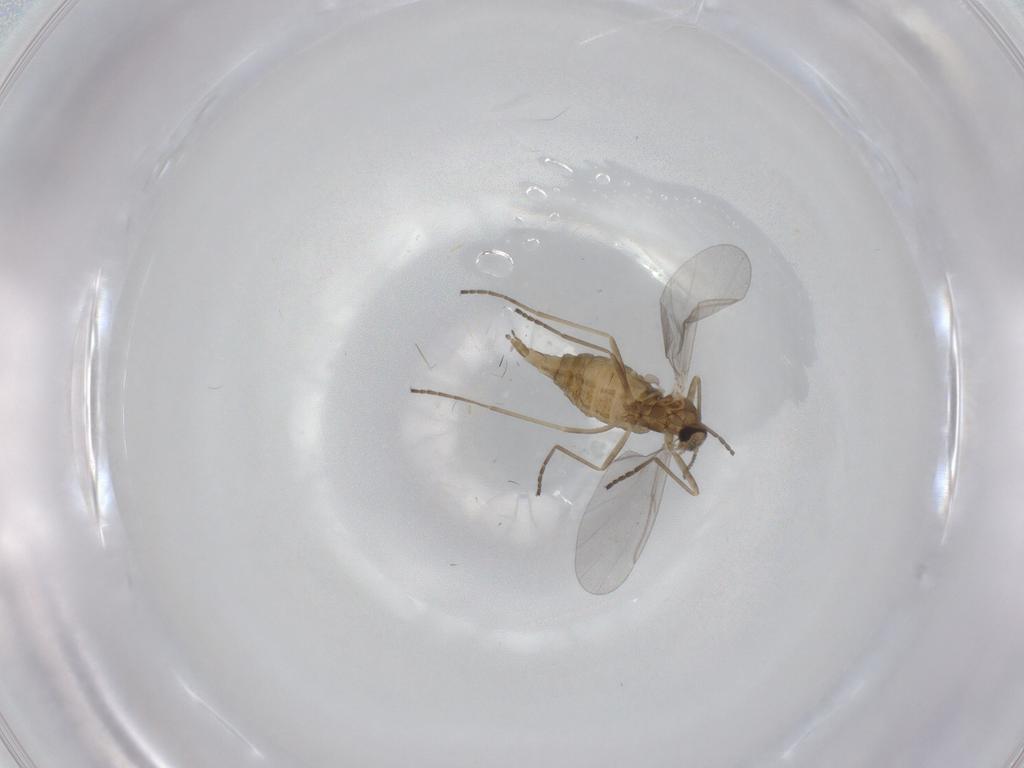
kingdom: Animalia
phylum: Arthropoda
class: Insecta
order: Diptera
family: Cecidomyiidae
